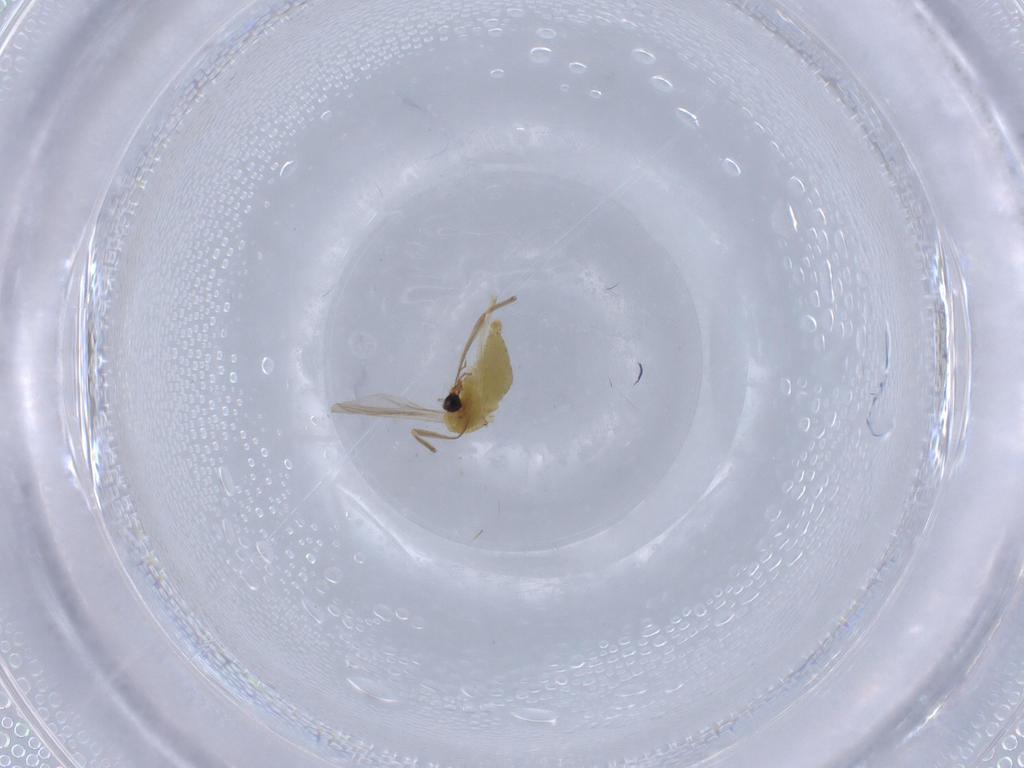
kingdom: Animalia
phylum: Arthropoda
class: Insecta
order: Diptera
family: Chironomidae
